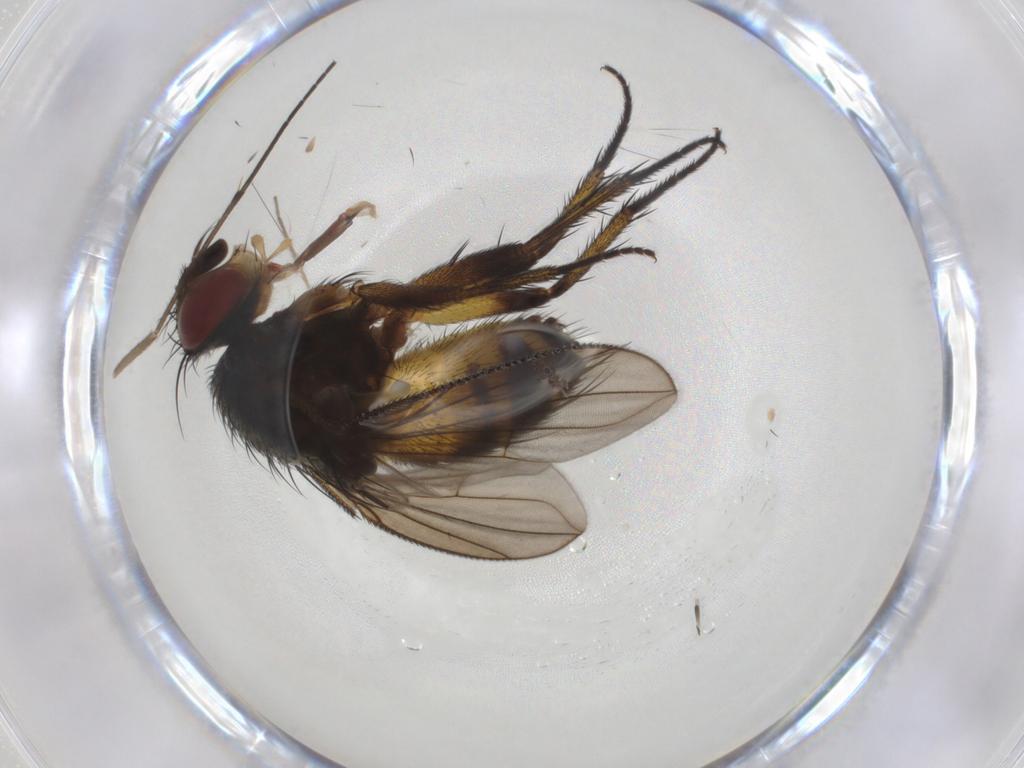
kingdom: Animalia
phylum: Arthropoda
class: Insecta
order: Diptera
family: Tachinidae
